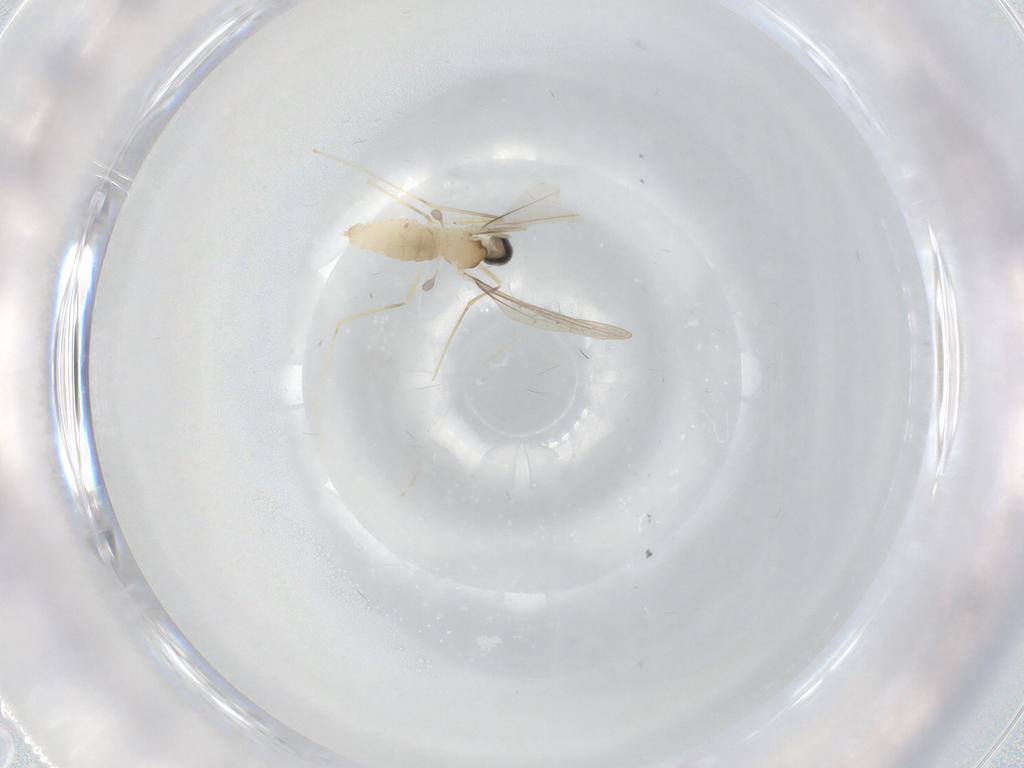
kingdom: Animalia
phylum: Arthropoda
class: Insecta
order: Diptera
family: Cecidomyiidae
